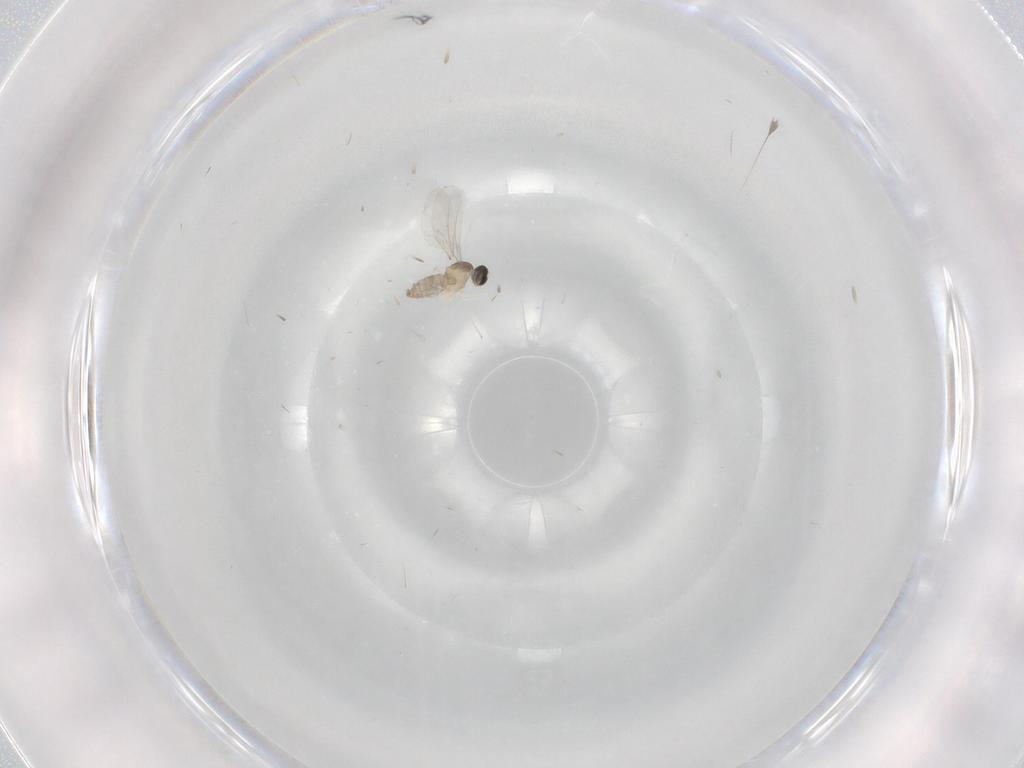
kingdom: Animalia
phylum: Arthropoda
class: Insecta
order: Diptera
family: Cecidomyiidae
